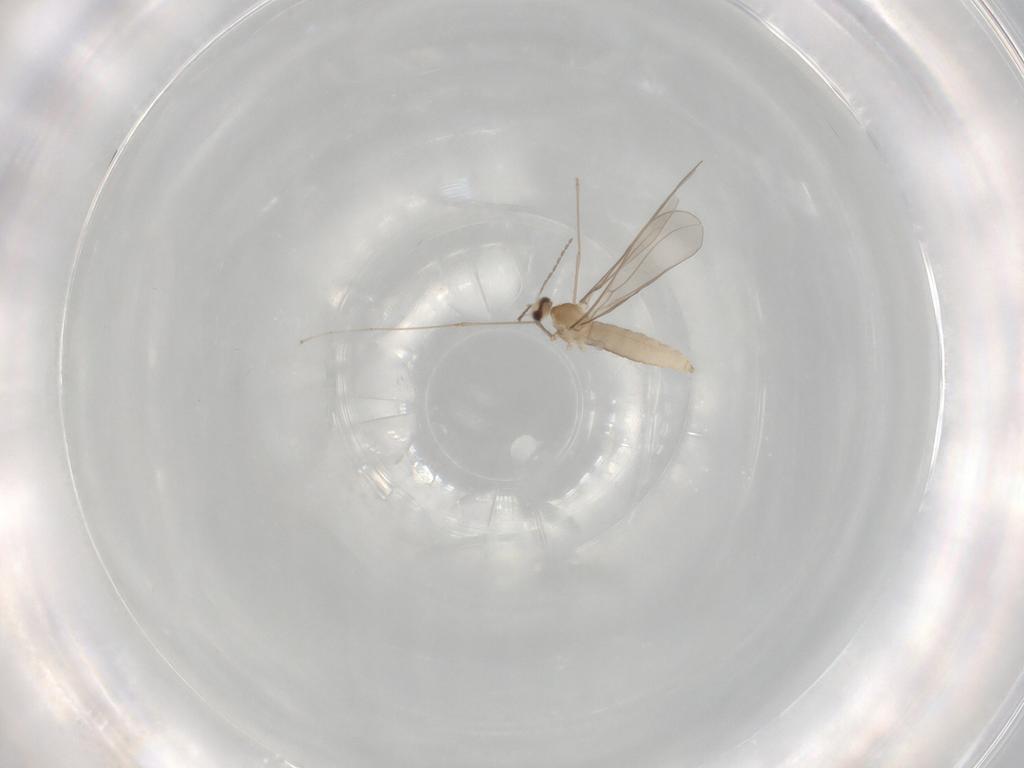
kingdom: Animalia
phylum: Arthropoda
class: Insecta
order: Diptera
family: Cecidomyiidae
